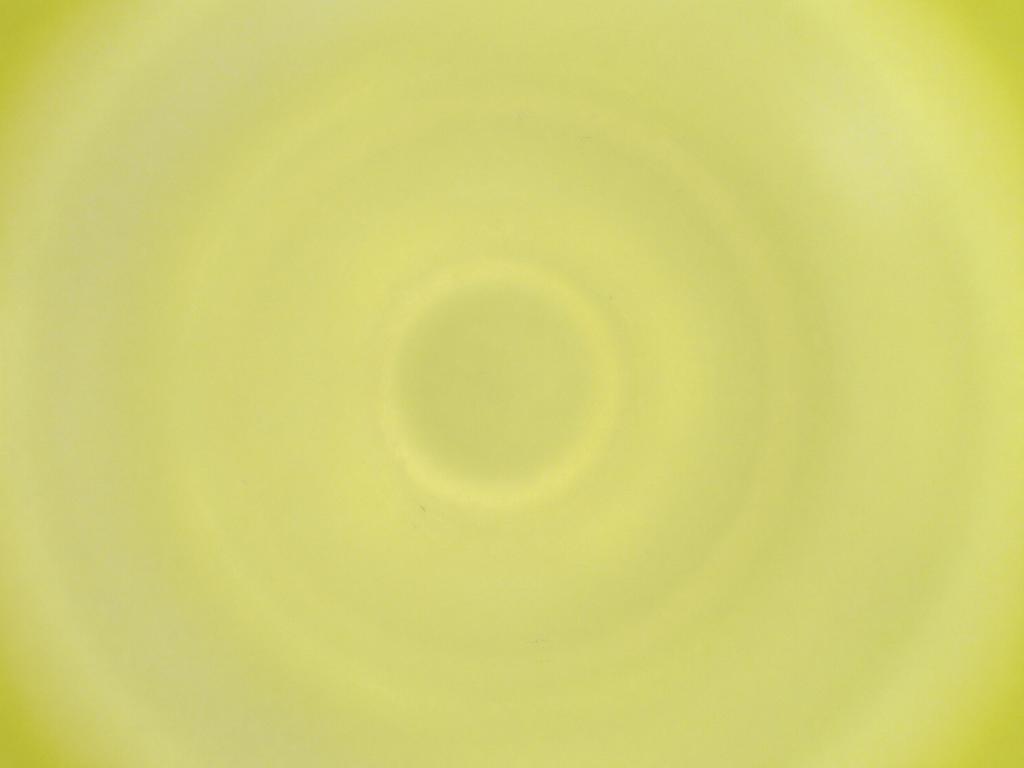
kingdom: Animalia
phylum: Arthropoda
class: Insecta
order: Diptera
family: Cecidomyiidae
